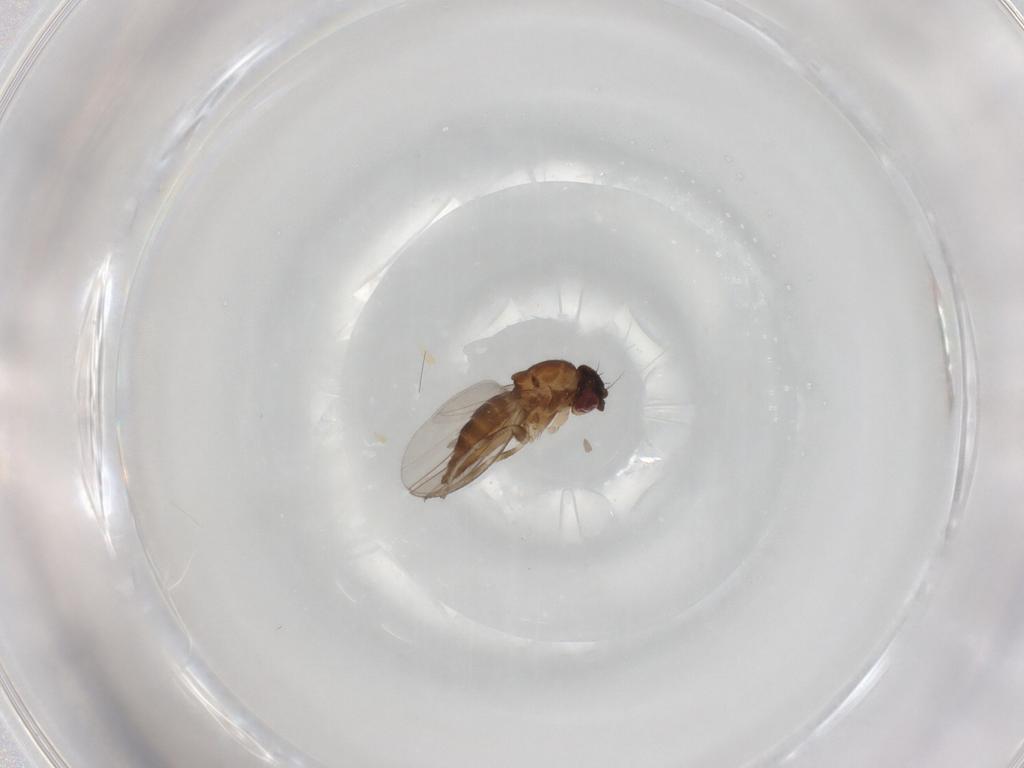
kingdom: Animalia
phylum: Arthropoda
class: Insecta
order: Diptera
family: Milichiidae
